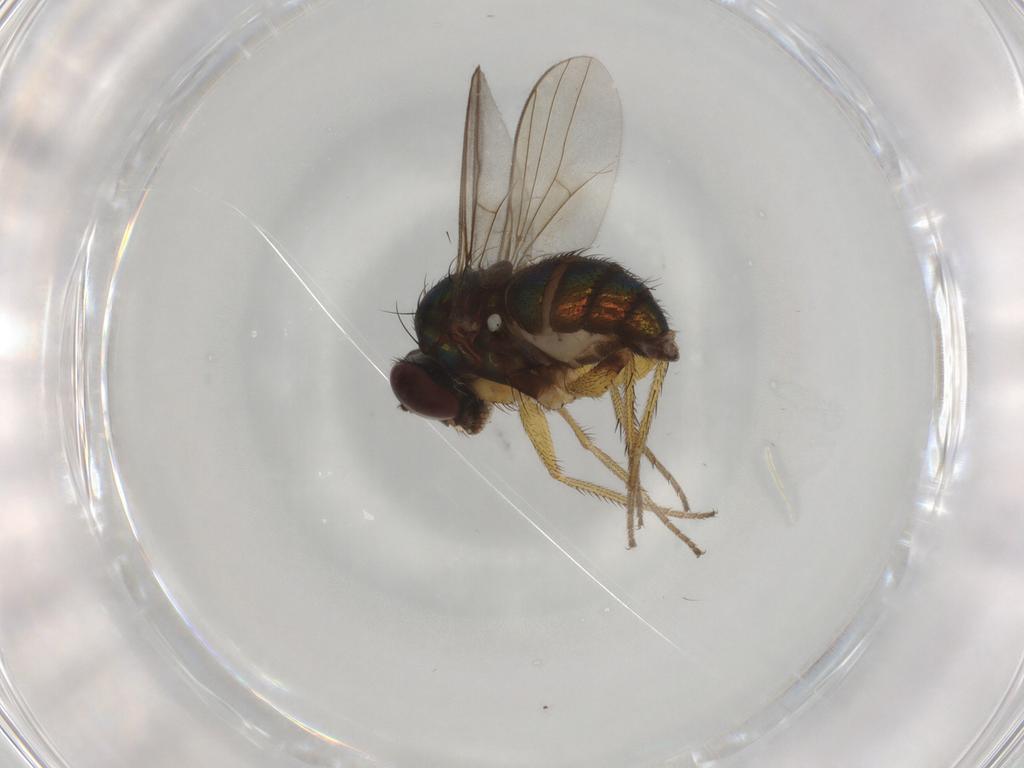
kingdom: Animalia
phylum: Arthropoda
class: Insecta
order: Diptera
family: Dolichopodidae
